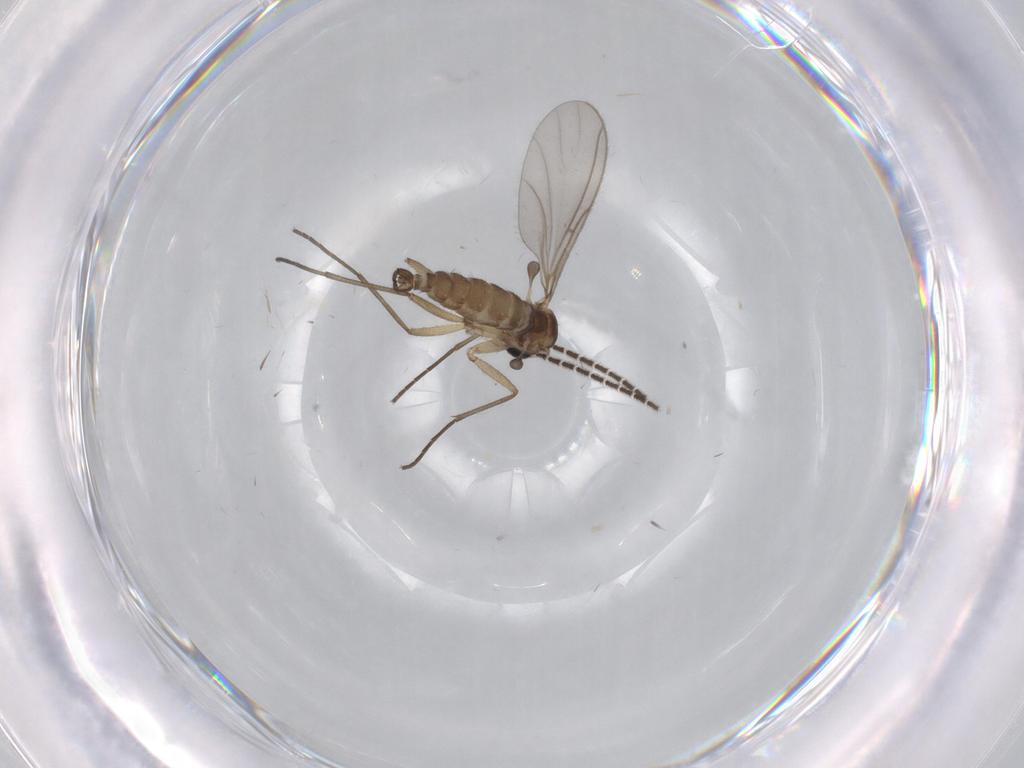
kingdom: Animalia
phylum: Arthropoda
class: Insecta
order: Diptera
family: Sciaridae
